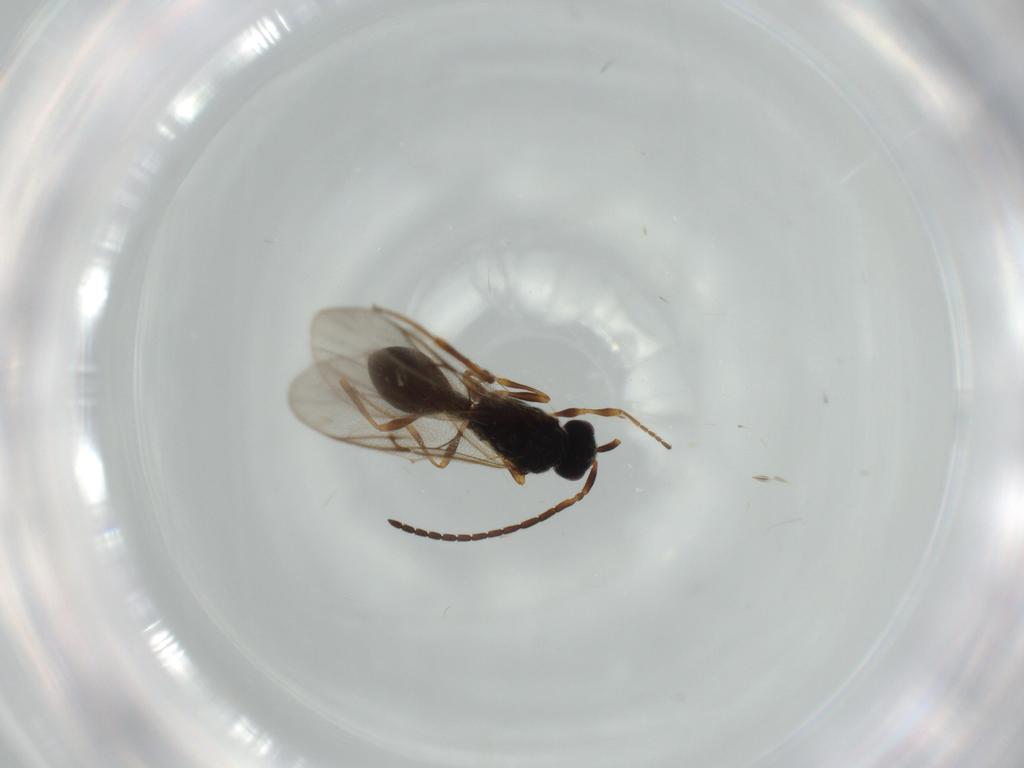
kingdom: Animalia
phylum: Arthropoda
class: Insecta
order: Hymenoptera
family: Diapriidae
